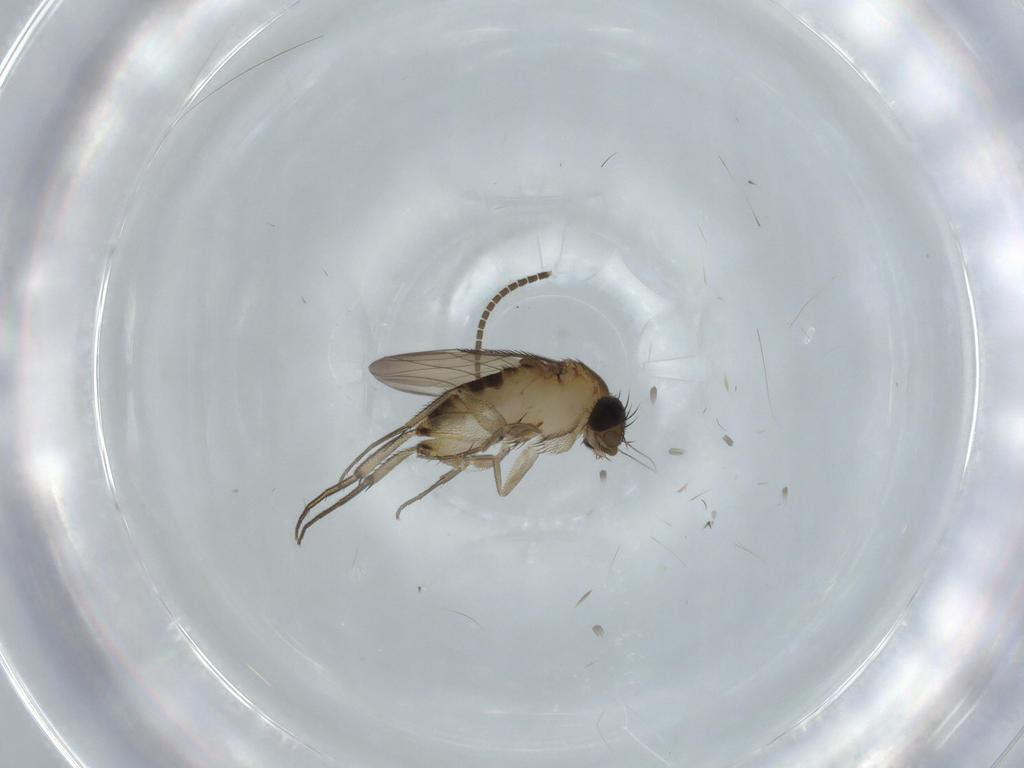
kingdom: Animalia
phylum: Arthropoda
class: Insecta
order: Diptera
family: Phoridae
